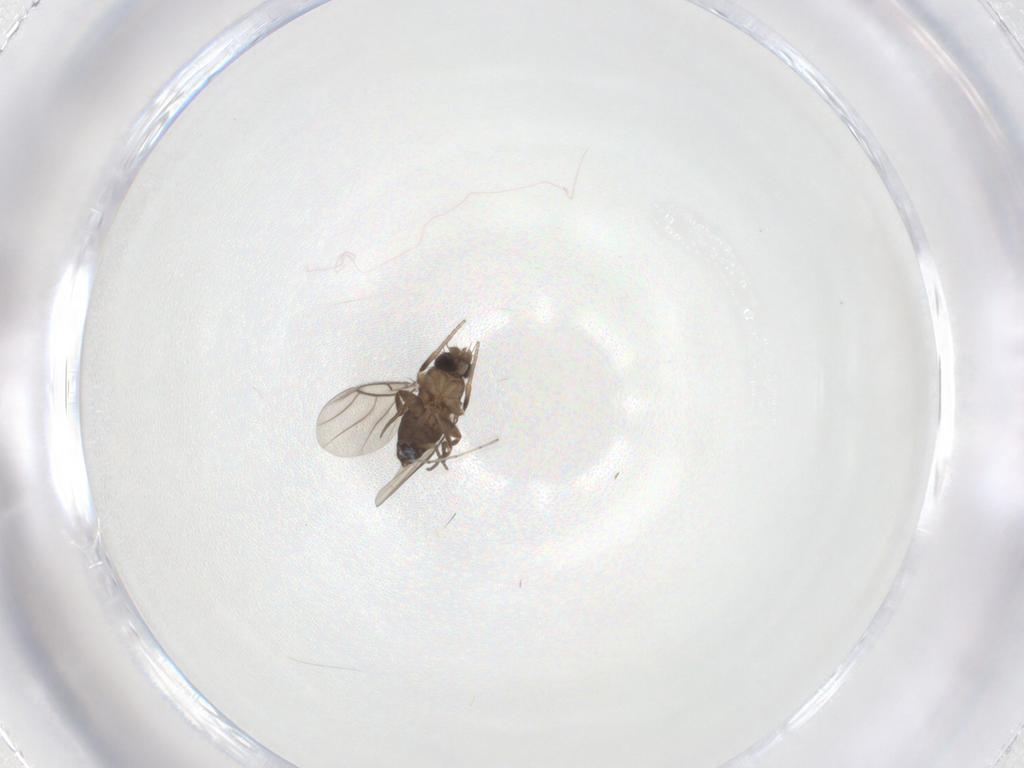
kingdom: Animalia
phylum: Arthropoda
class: Insecta
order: Diptera
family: Phoridae
